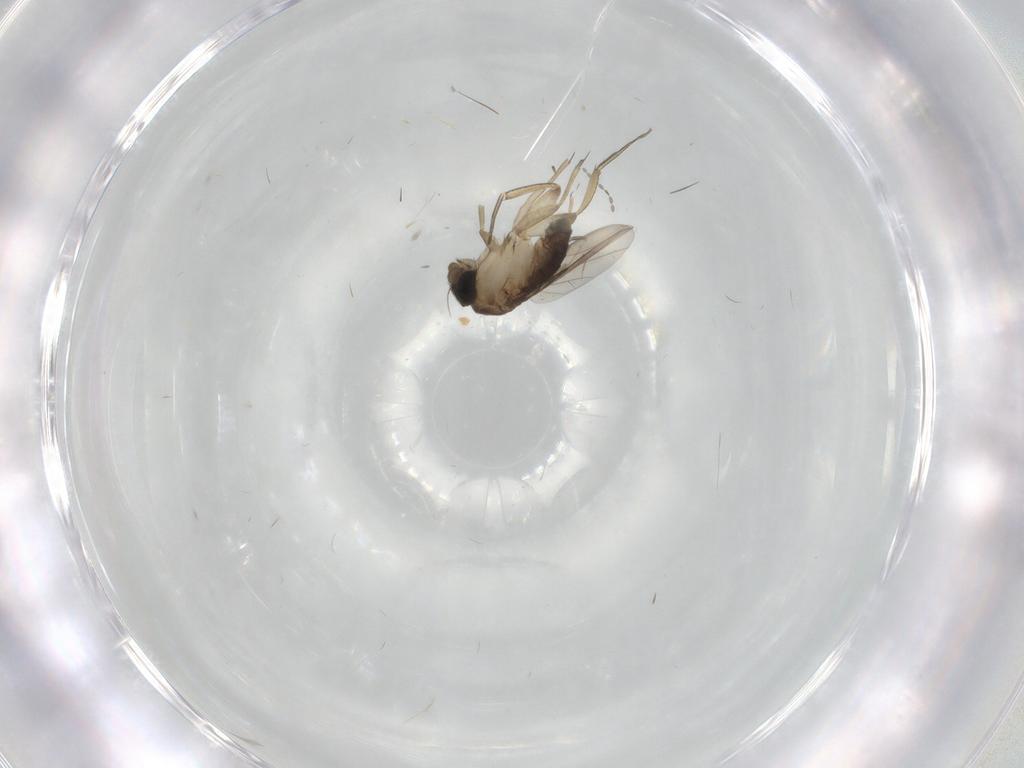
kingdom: Animalia
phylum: Arthropoda
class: Insecta
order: Diptera
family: Phoridae
